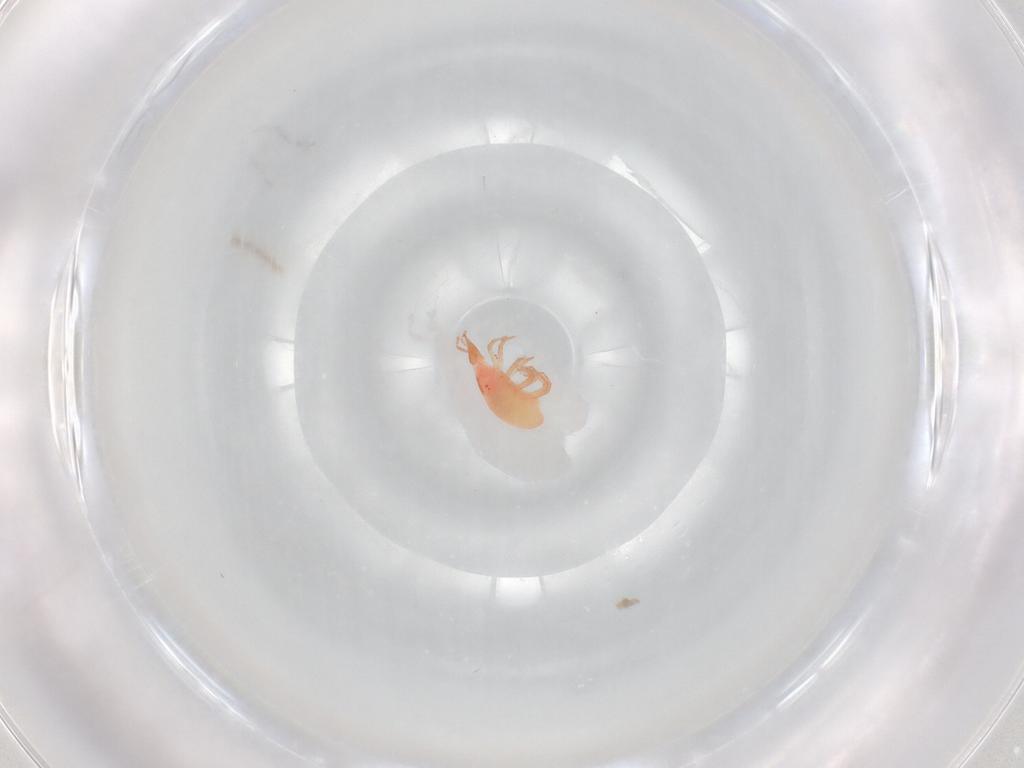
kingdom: Animalia
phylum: Arthropoda
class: Arachnida
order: Trombidiformes
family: Bdellidae
